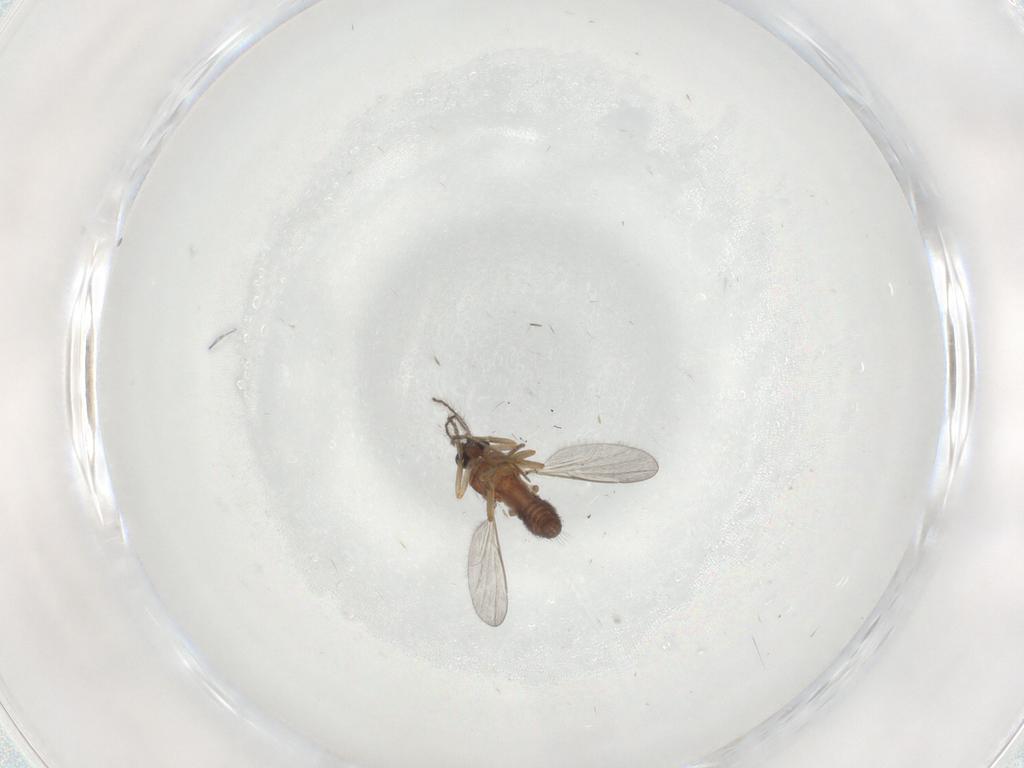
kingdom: Animalia
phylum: Arthropoda
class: Insecta
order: Diptera
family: Ceratopogonidae
